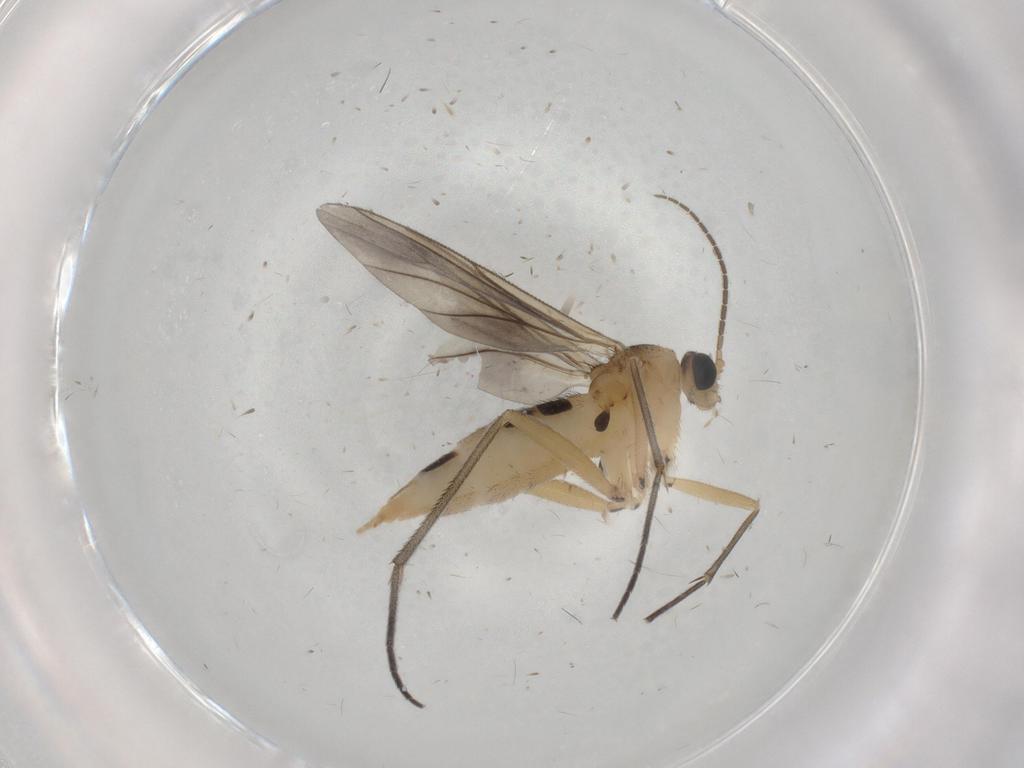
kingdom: Animalia
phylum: Arthropoda
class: Insecta
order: Diptera
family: Sciaridae
